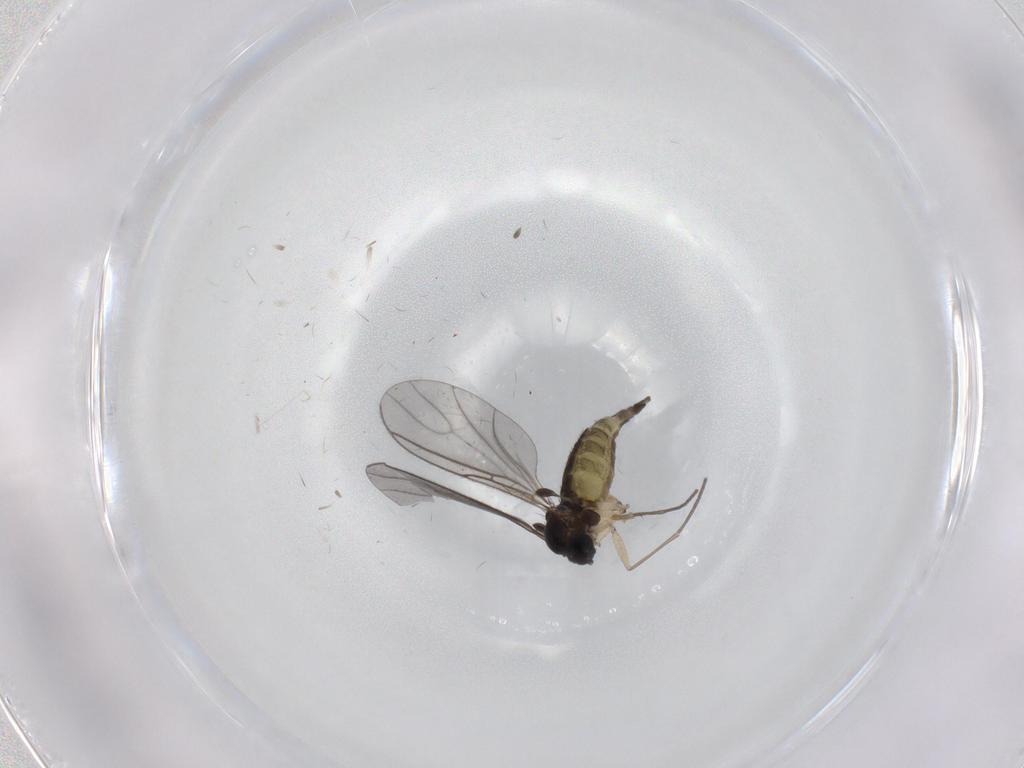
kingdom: Animalia
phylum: Arthropoda
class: Insecta
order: Diptera
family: Sciaridae
